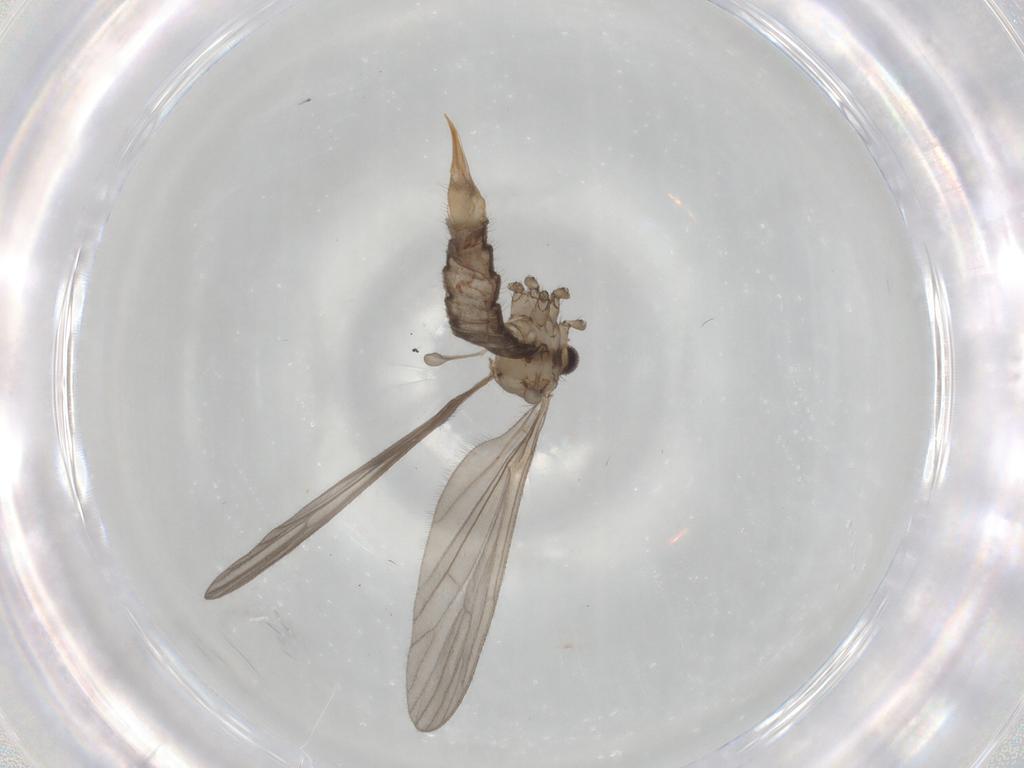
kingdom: Animalia
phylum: Arthropoda
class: Insecta
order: Diptera
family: Limoniidae
